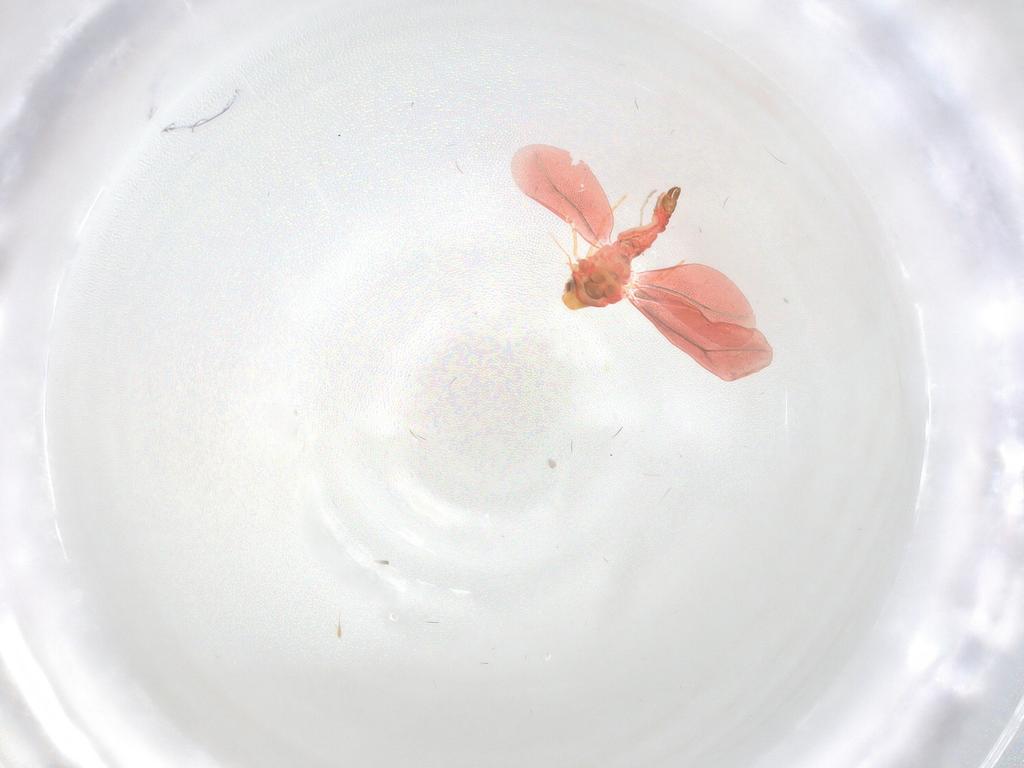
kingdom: Animalia
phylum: Arthropoda
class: Insecta
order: Hemiptera
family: Aleyrodidae
